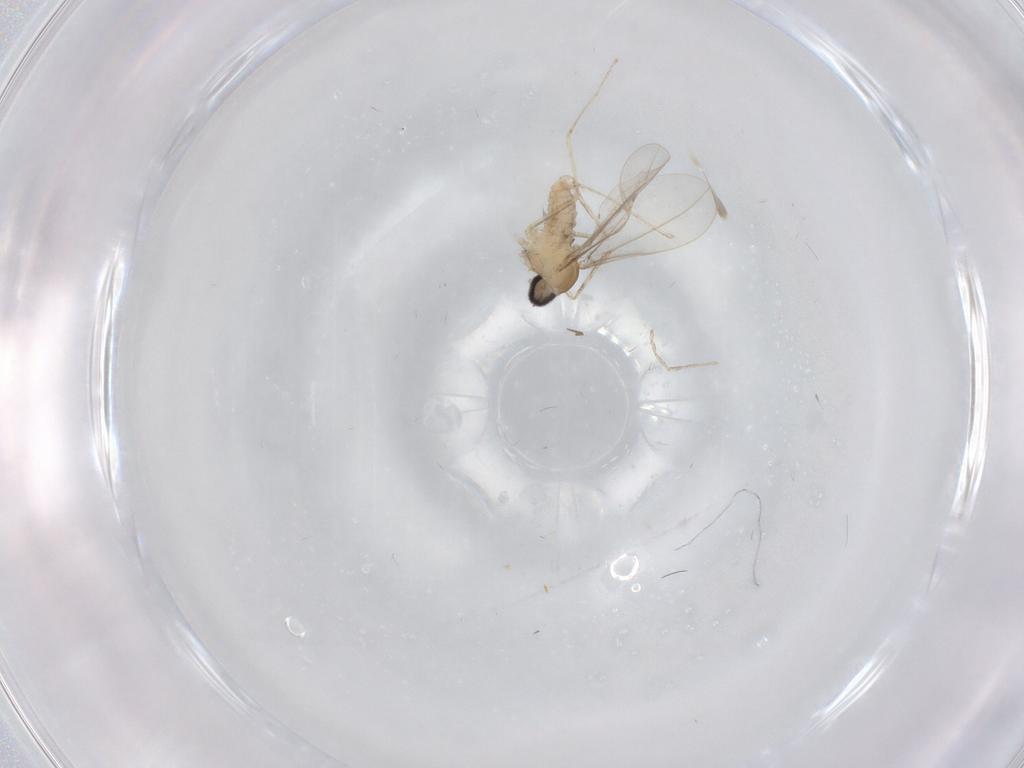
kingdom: Animalia
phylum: Arthropoda
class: Insecta
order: Diptera
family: Cecidomyiidae
